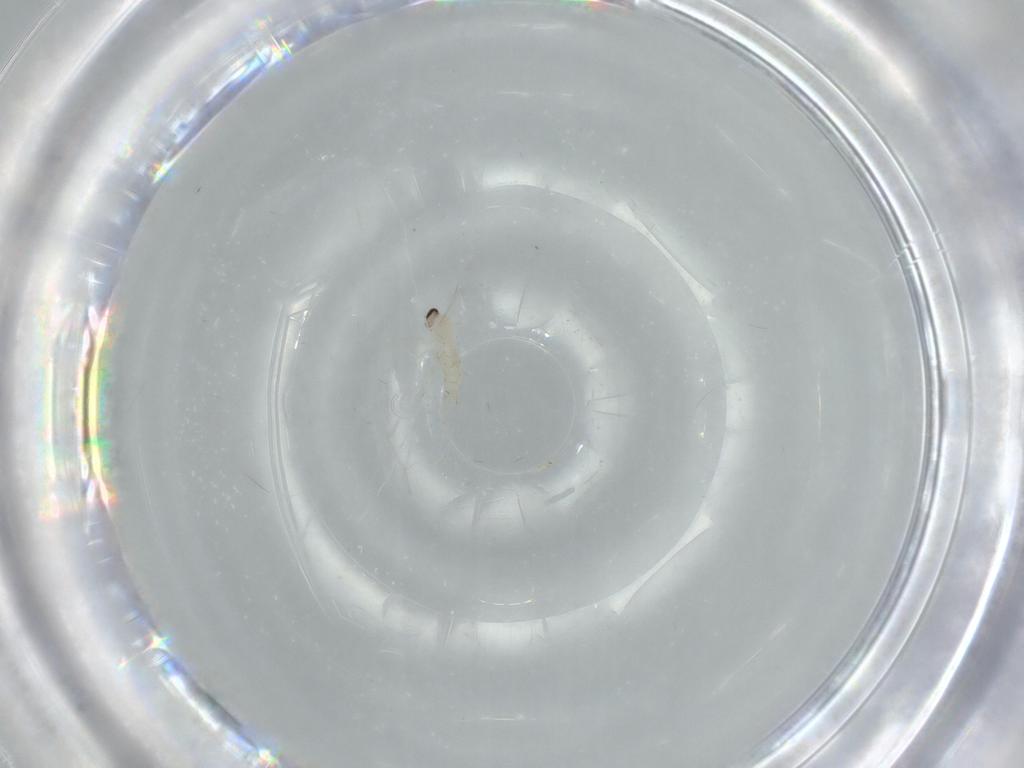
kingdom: Animalia
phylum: Arthropoda
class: Insecta
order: Diptera
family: Cecidomyiidae
